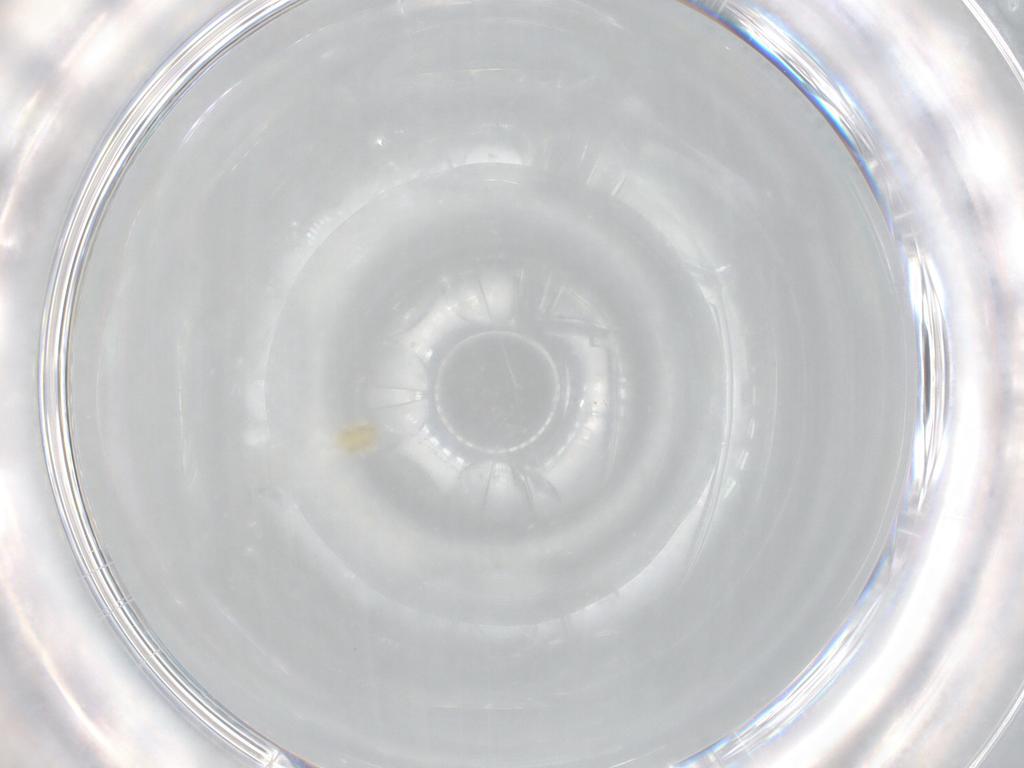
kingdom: Animalia
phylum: Arthropoda
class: Arachnida
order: Trombidiformes
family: Eupodidae
